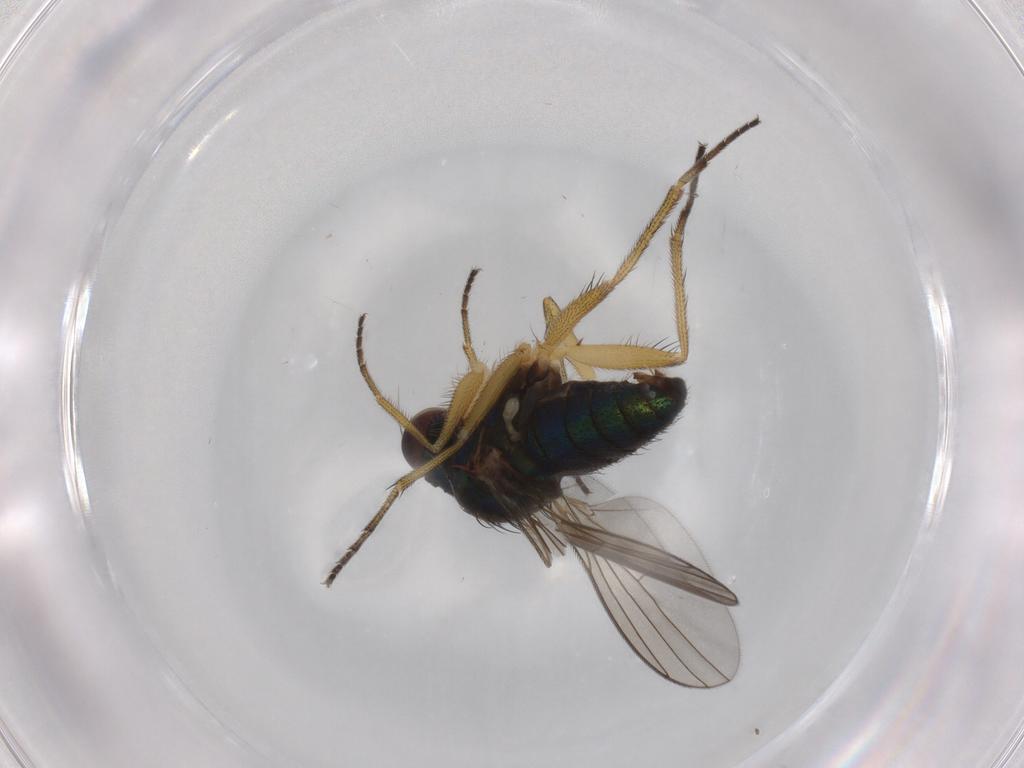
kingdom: Animalia
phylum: Arthropoda
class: Insecta
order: Diptera
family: Dolichopodidae
